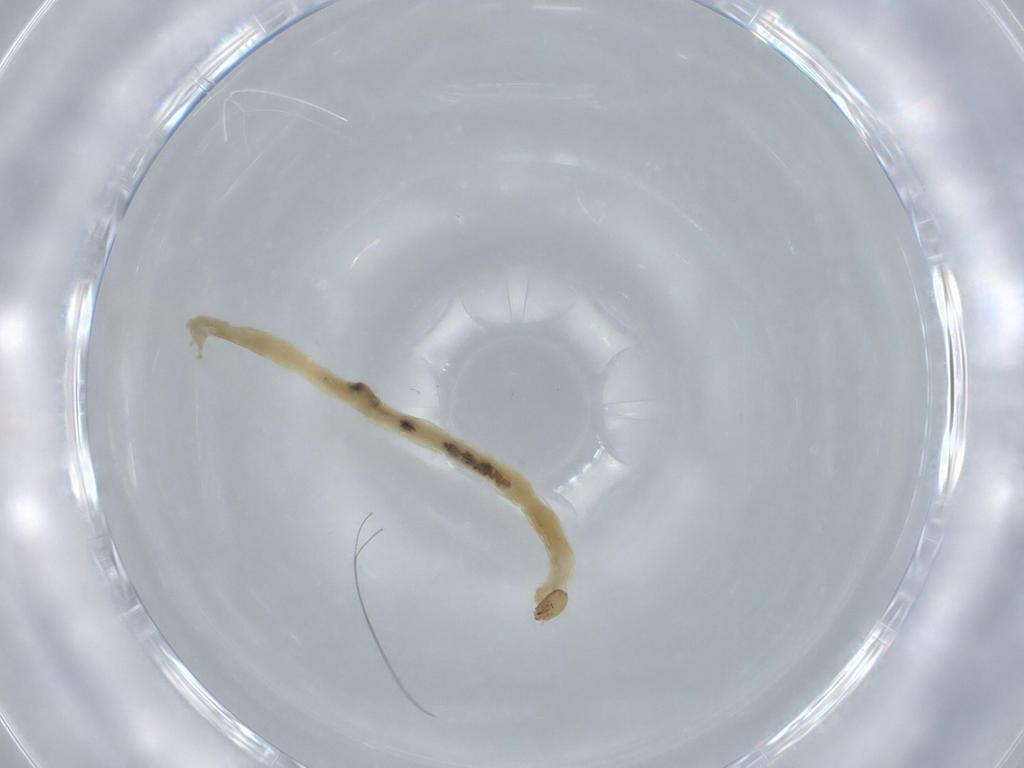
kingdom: Animalia
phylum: Arthropoda
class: Insecta
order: Diptera
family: Chironomidae
